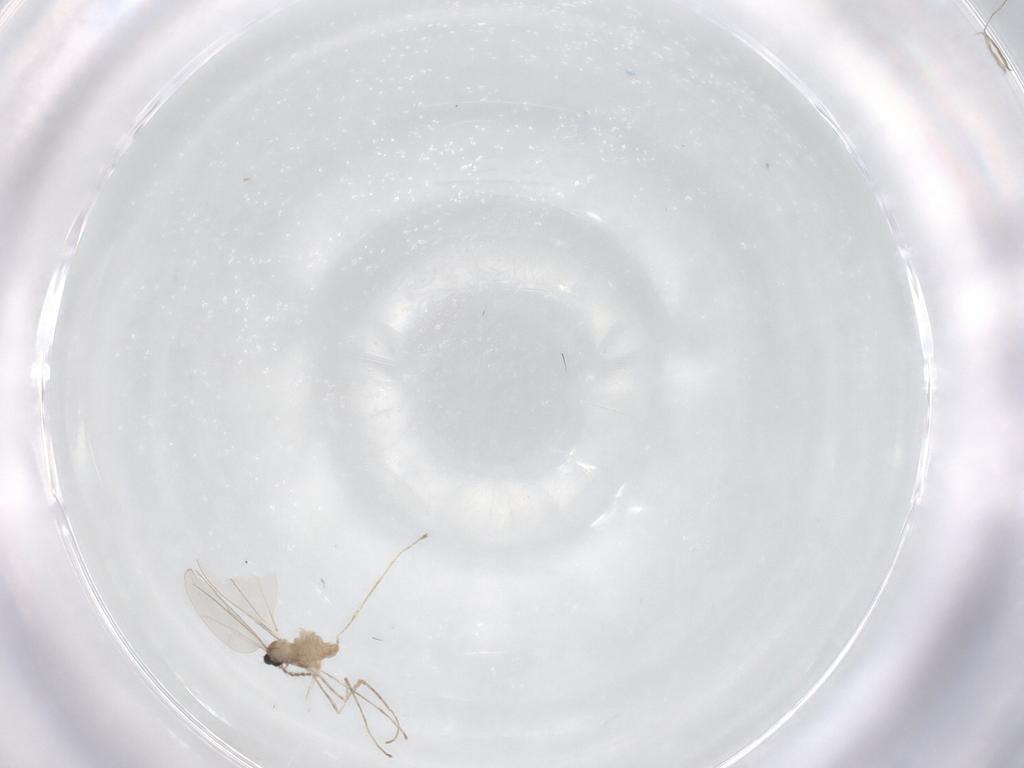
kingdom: Animalia
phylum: Arthropoda
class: Insecta
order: Diptera
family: Cecidomyiidae
